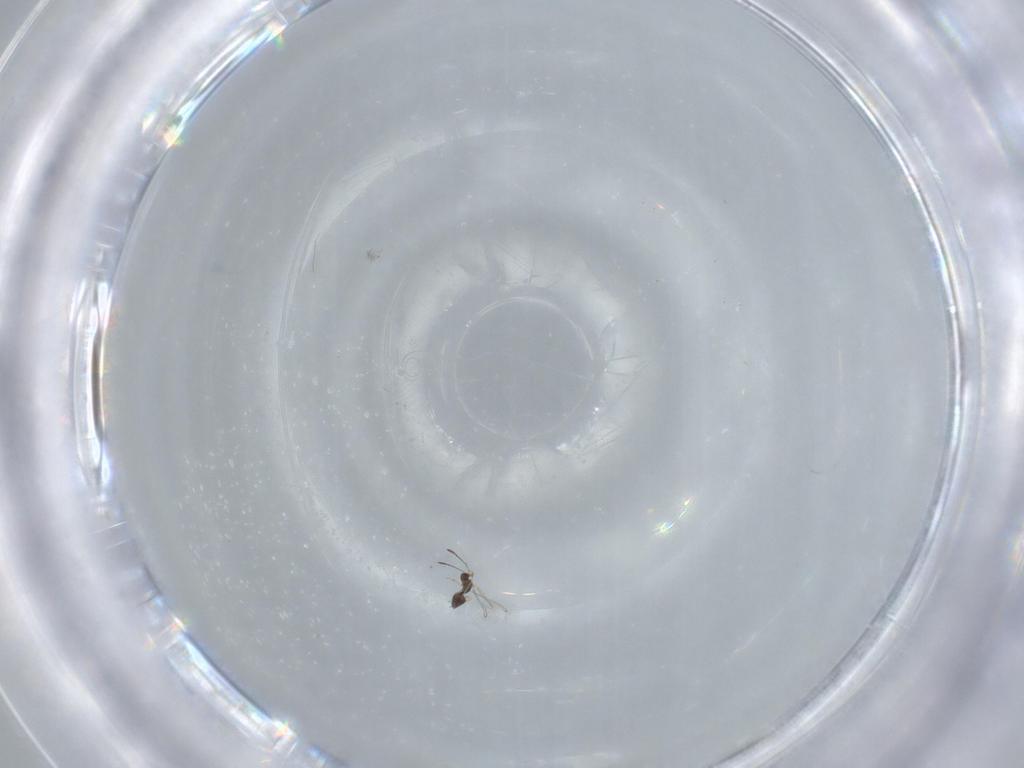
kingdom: Animalia
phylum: Arthropoda
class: Insecta
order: Hymenoptera
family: Mymaridae
